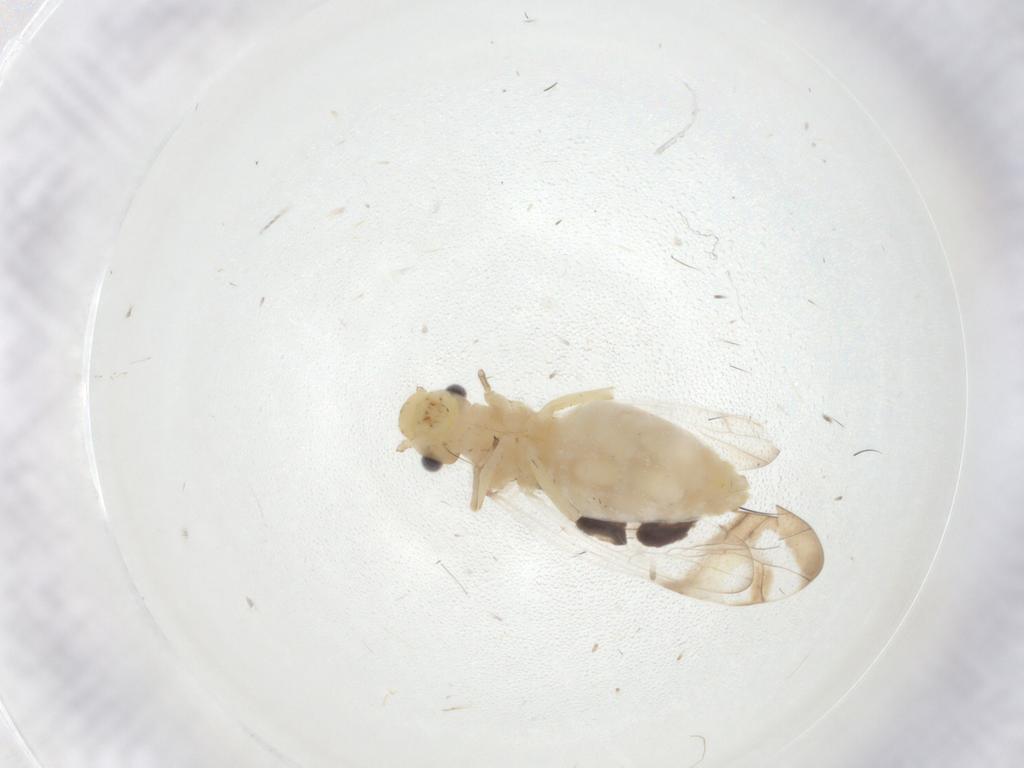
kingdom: Animalia
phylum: Arthropoda
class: Insecta
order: Psocodea
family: Stenopsocidae
